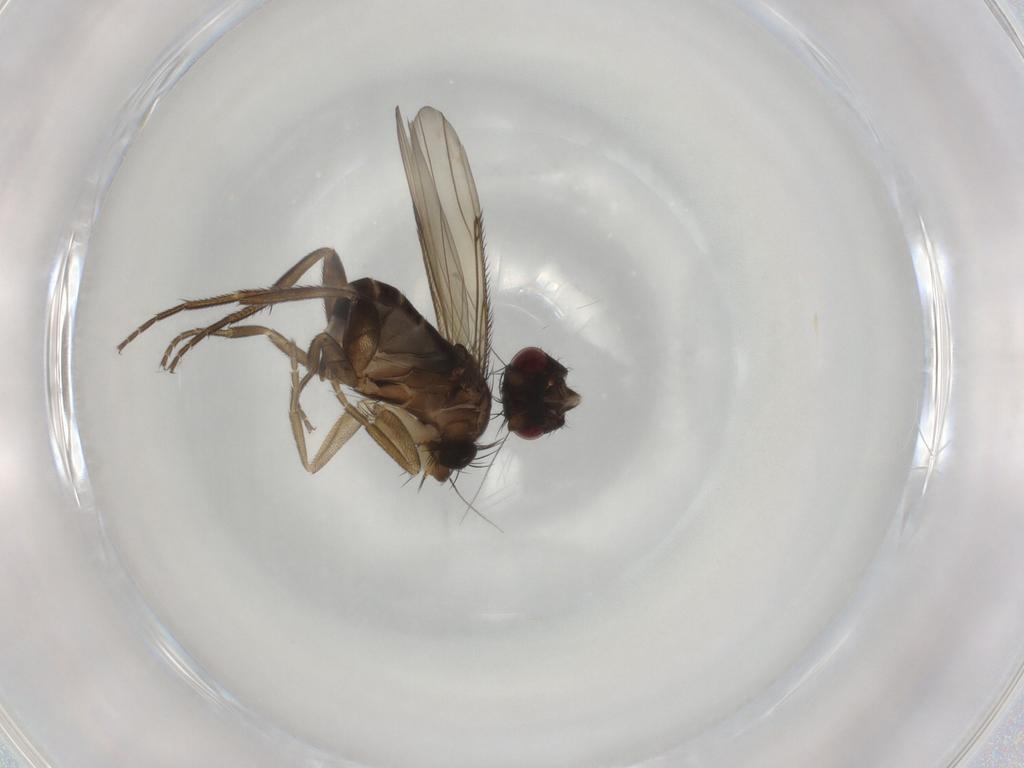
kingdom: Animalia
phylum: Arthropoda
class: Insecta
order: Diptera
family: Sphaeroceridae
